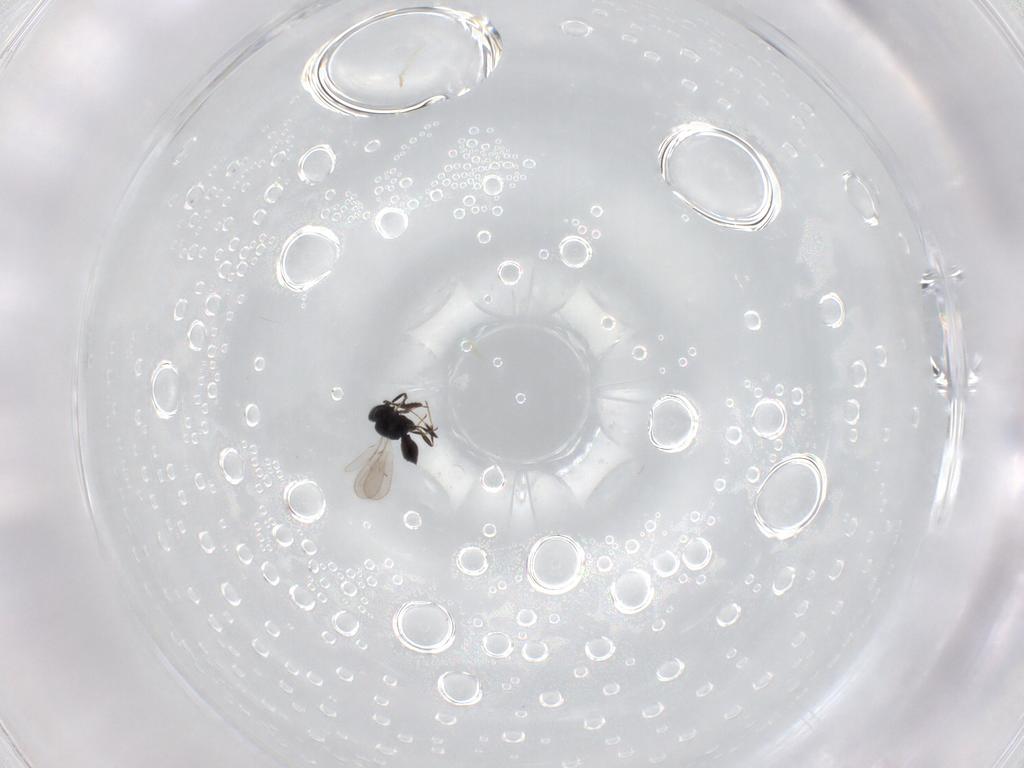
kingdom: Animalia
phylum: Arthropoda
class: Insecta
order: Hymenoptera
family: Scelionidae
